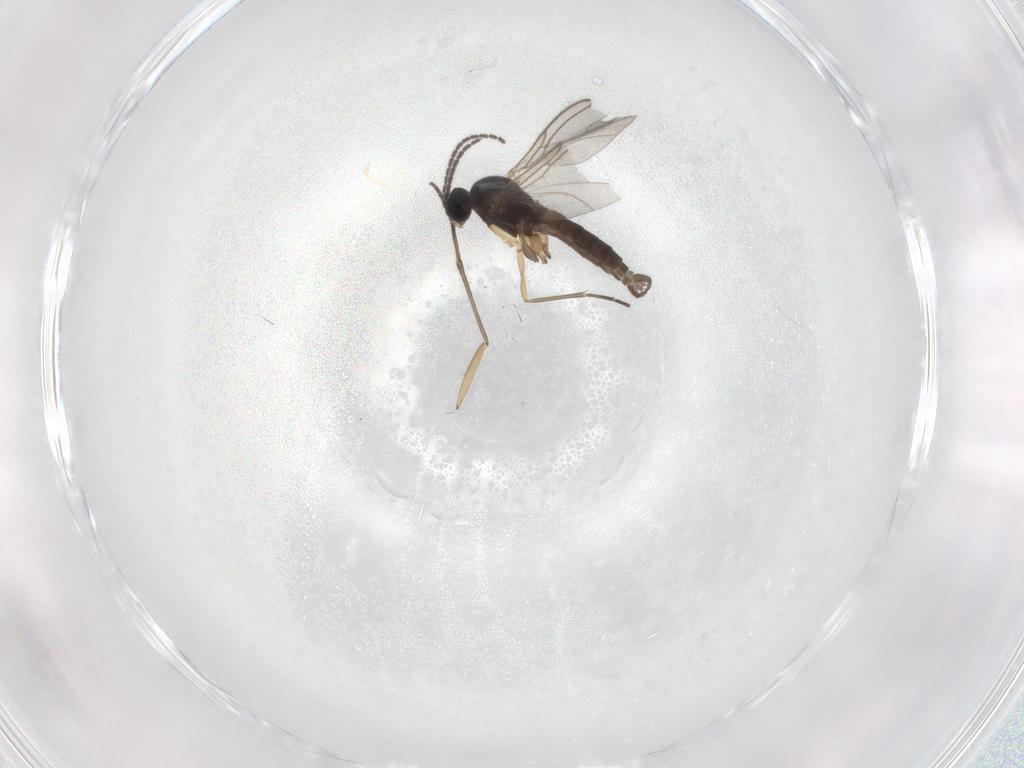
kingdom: Animalia
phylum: Arthropoda
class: Insecta
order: Diptera
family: Sciaridae
